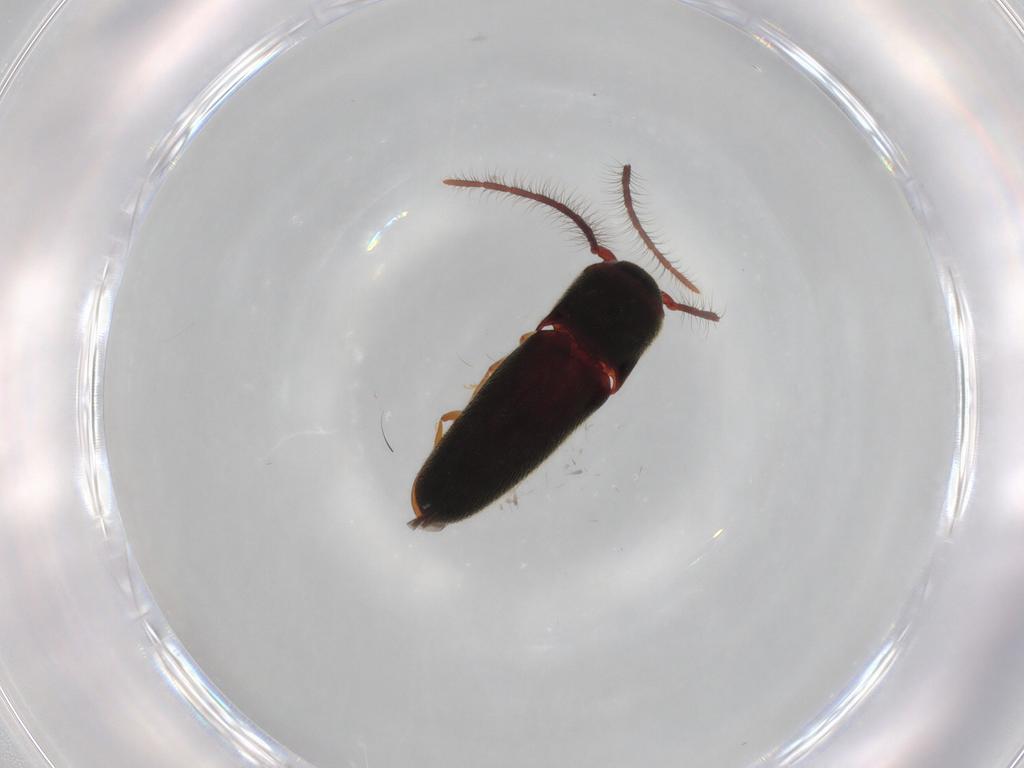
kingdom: Animalia
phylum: Arthropoda
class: Insecta
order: Coleoptera
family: Eucnemidae
